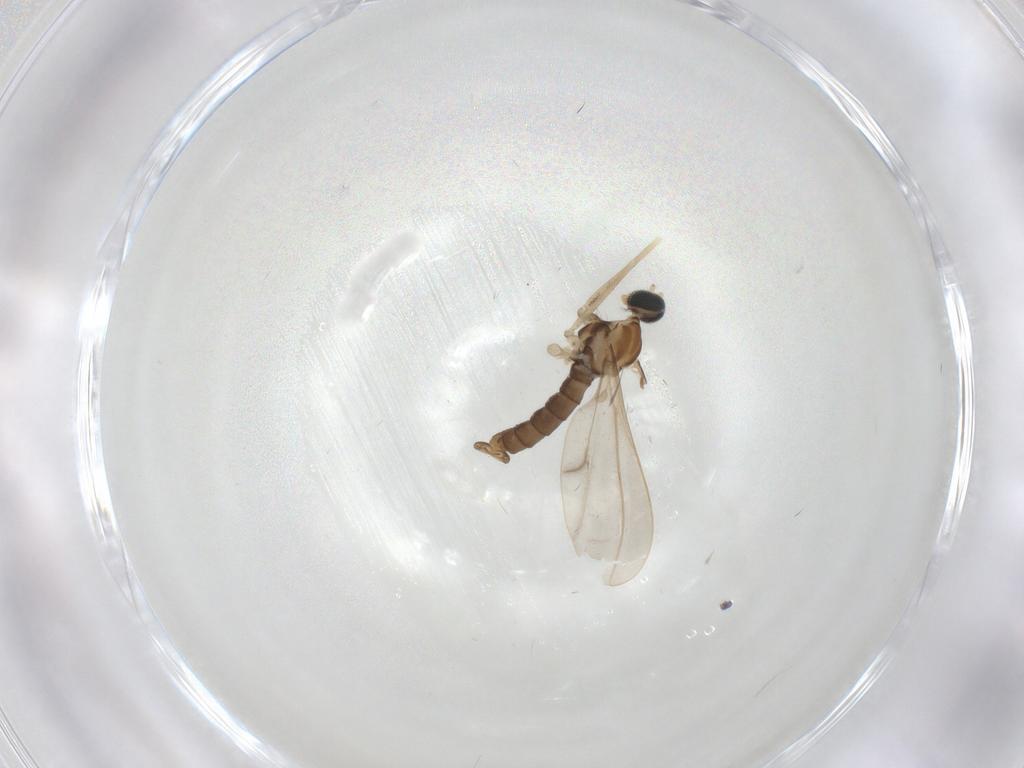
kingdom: Animalia
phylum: Arthropoda
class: Insecta
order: Diptera
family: Cecidomyiidae
